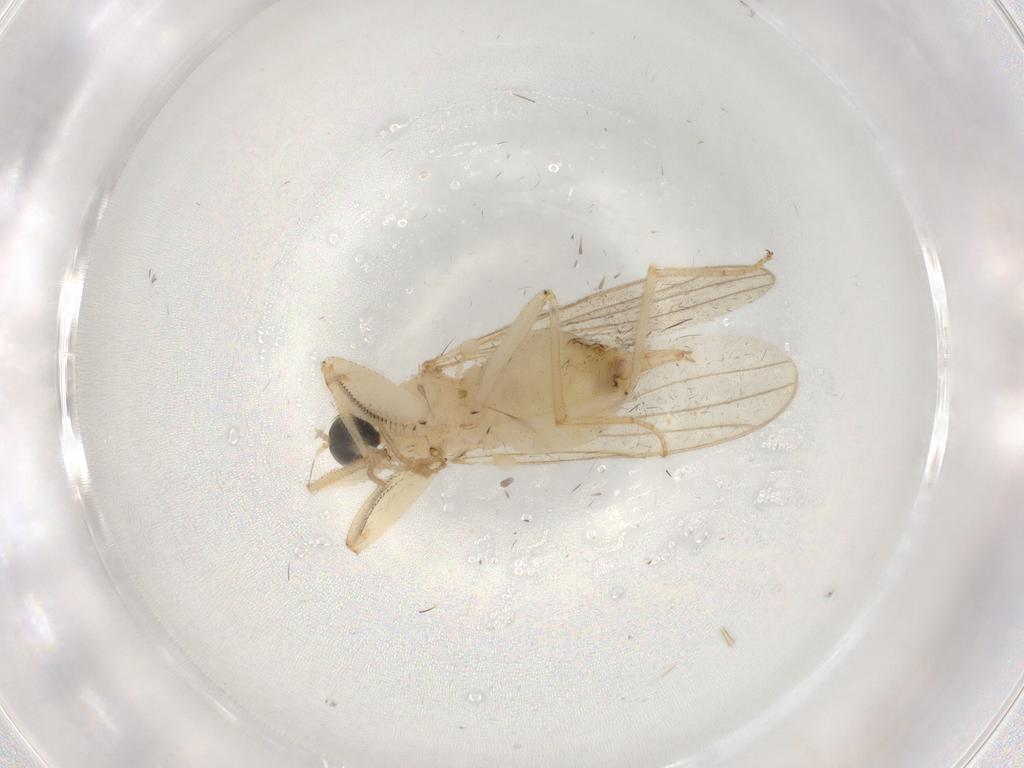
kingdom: Animalia
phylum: Arthropoda
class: Insecta
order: Diptera
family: Hybotidae
